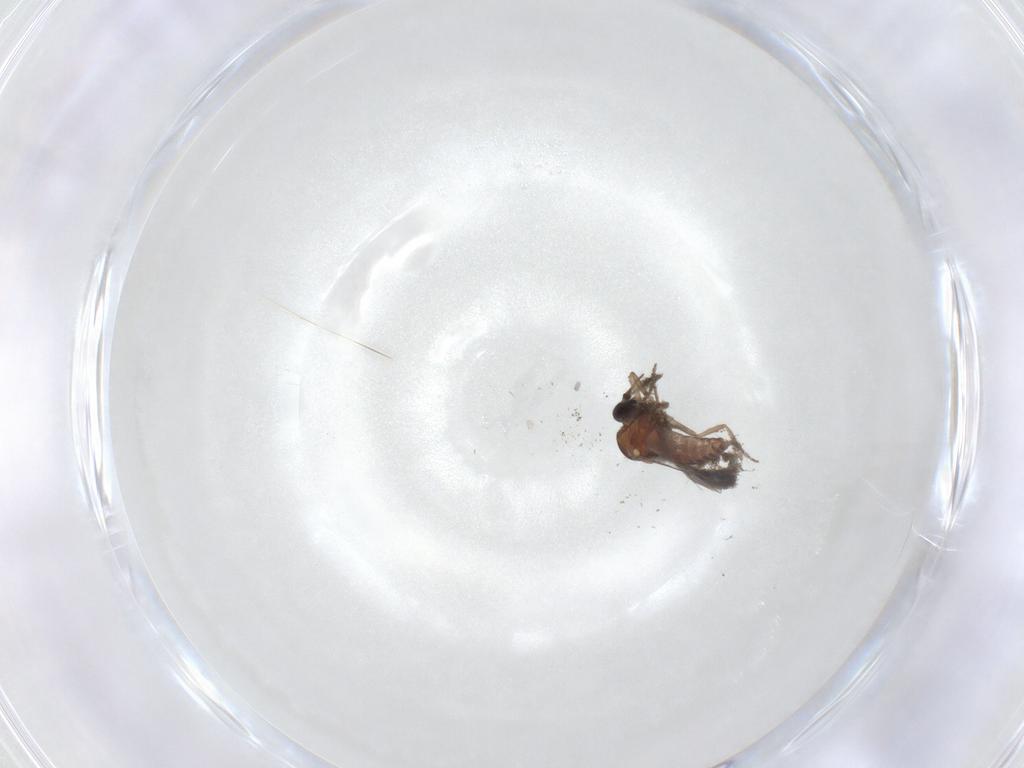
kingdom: Animalia
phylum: Arthropoda
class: Insecta
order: Diptera
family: Ceratopogonidae
